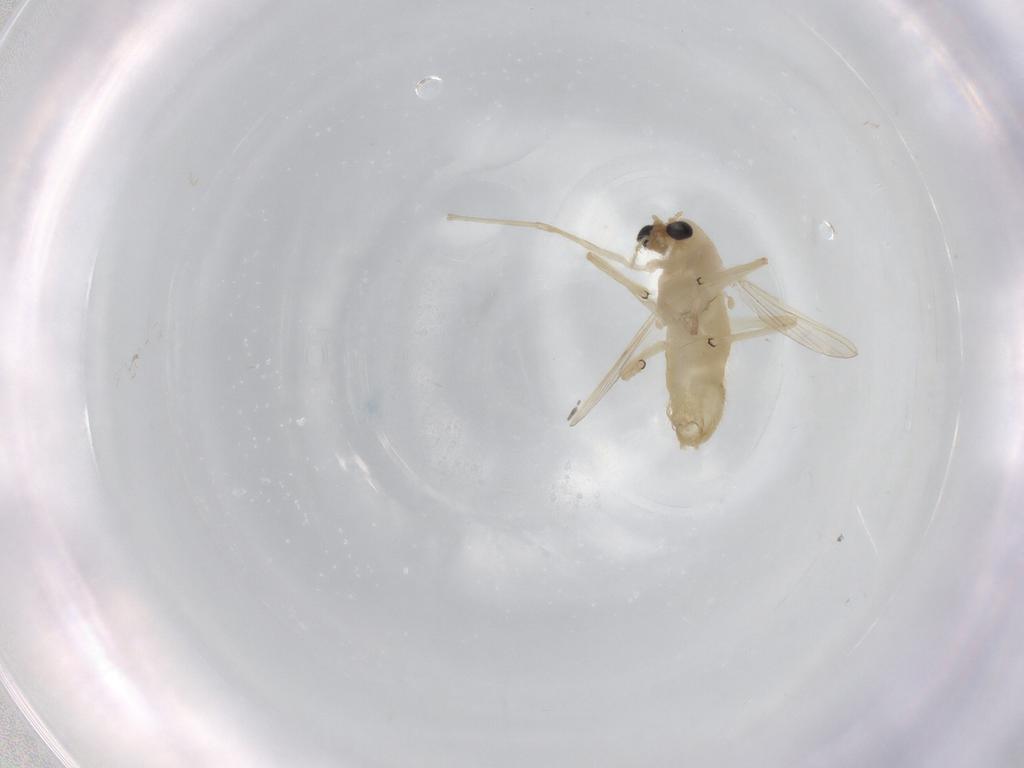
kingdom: Animalia
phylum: Arthropoda
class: Insecta
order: Diptera
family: Chironomidae
